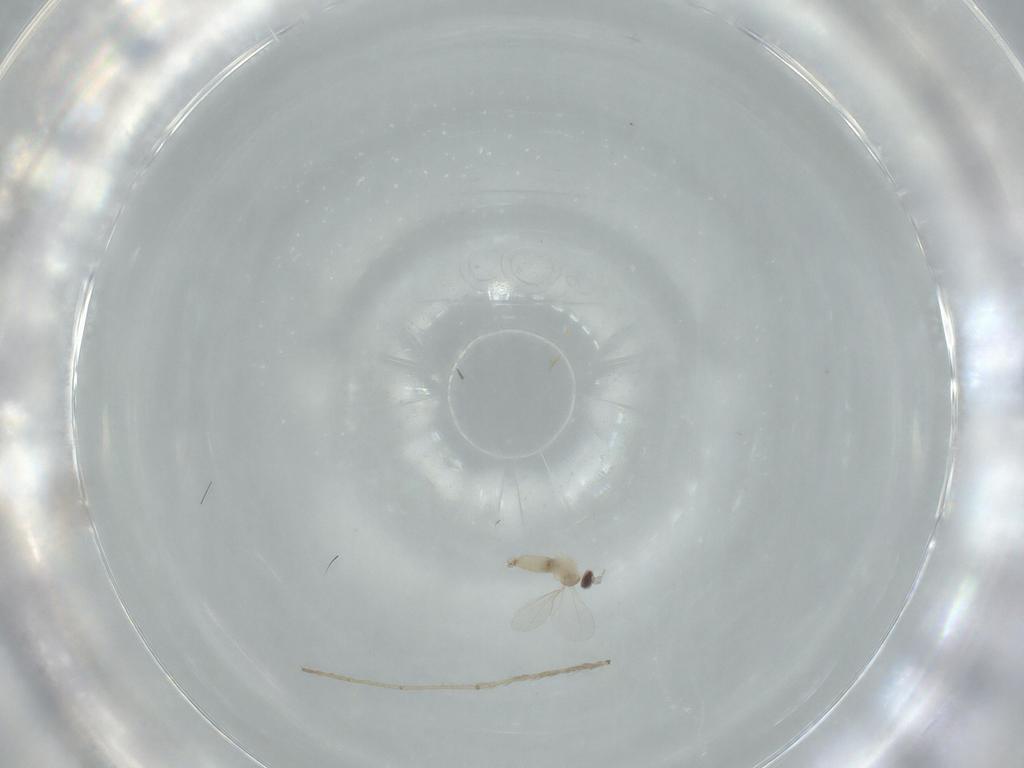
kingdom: Animalia
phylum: Arthropoda
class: Insecta
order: Diptera
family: Ceratopogonidae
